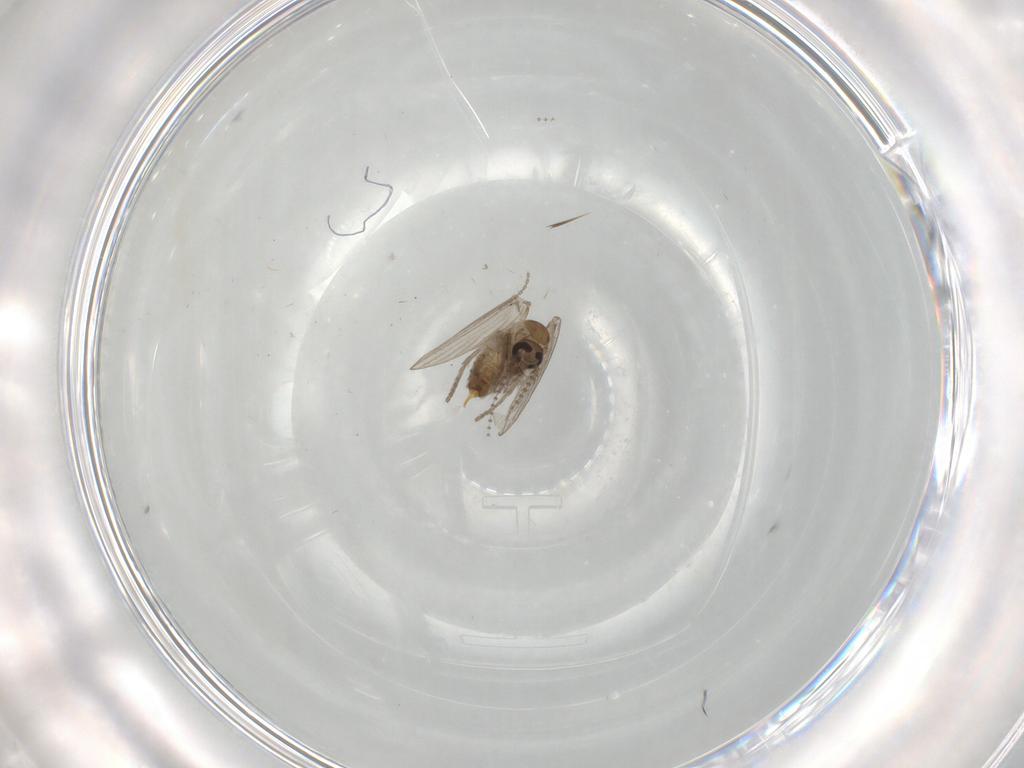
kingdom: Animalia
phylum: Arthropoda
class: Insecta
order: Diptera
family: Psychodidae
